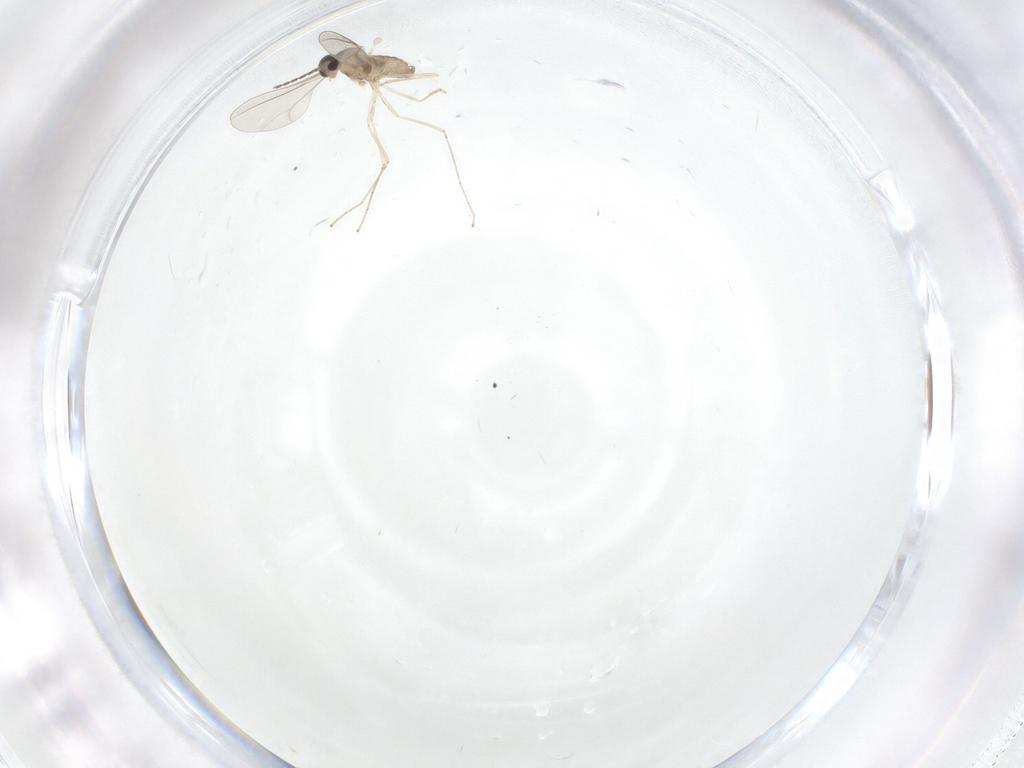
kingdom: Animalia
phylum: Arthropoda
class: Insecta
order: Diptera
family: Cecidomyiidae
